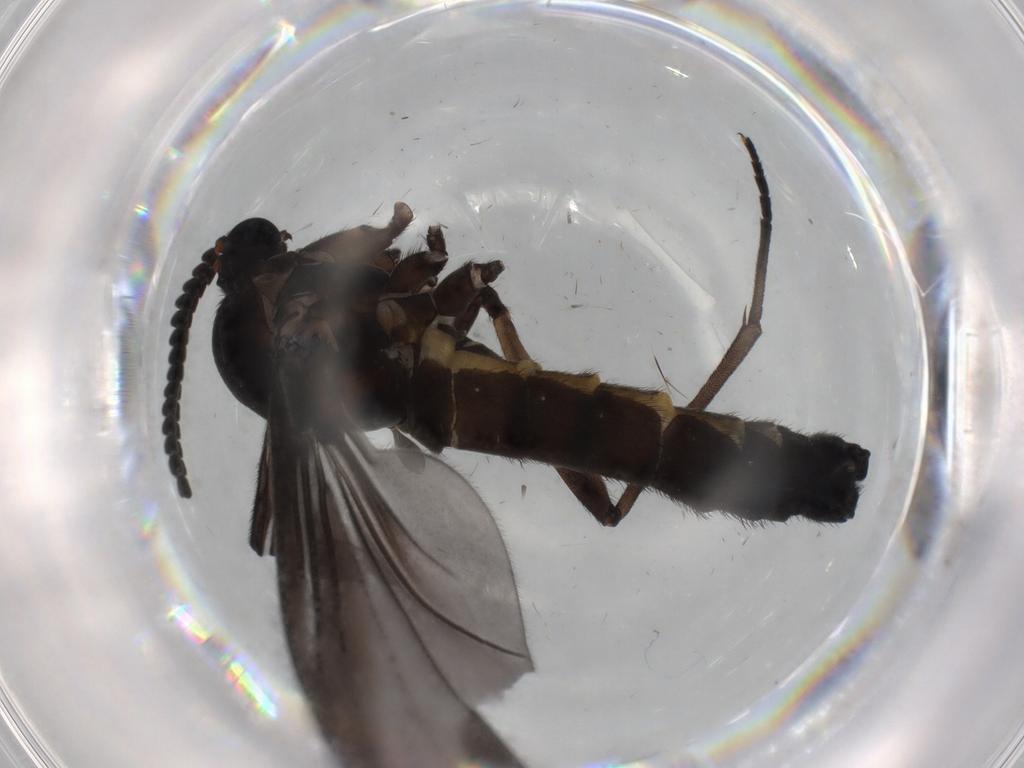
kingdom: Animalia
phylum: Arthropoda
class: Insecta
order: Diptera
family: Sciaridae
